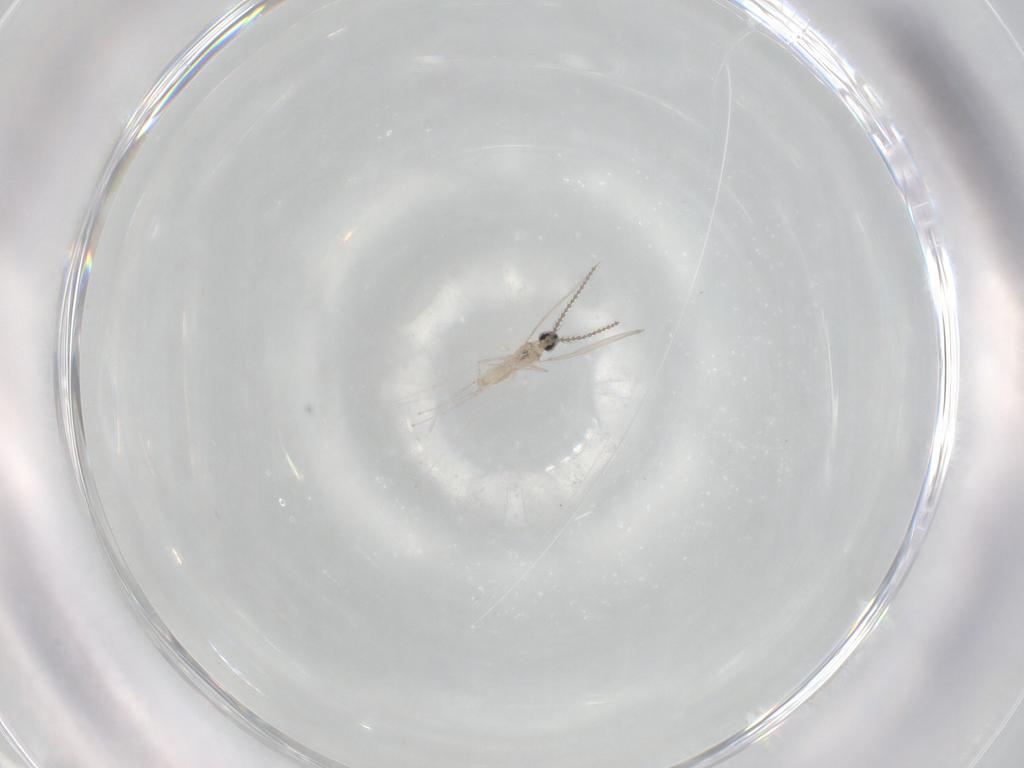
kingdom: Animalia
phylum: Arthropoda
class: Insecta
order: Diptera
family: Cecidomyiidae
